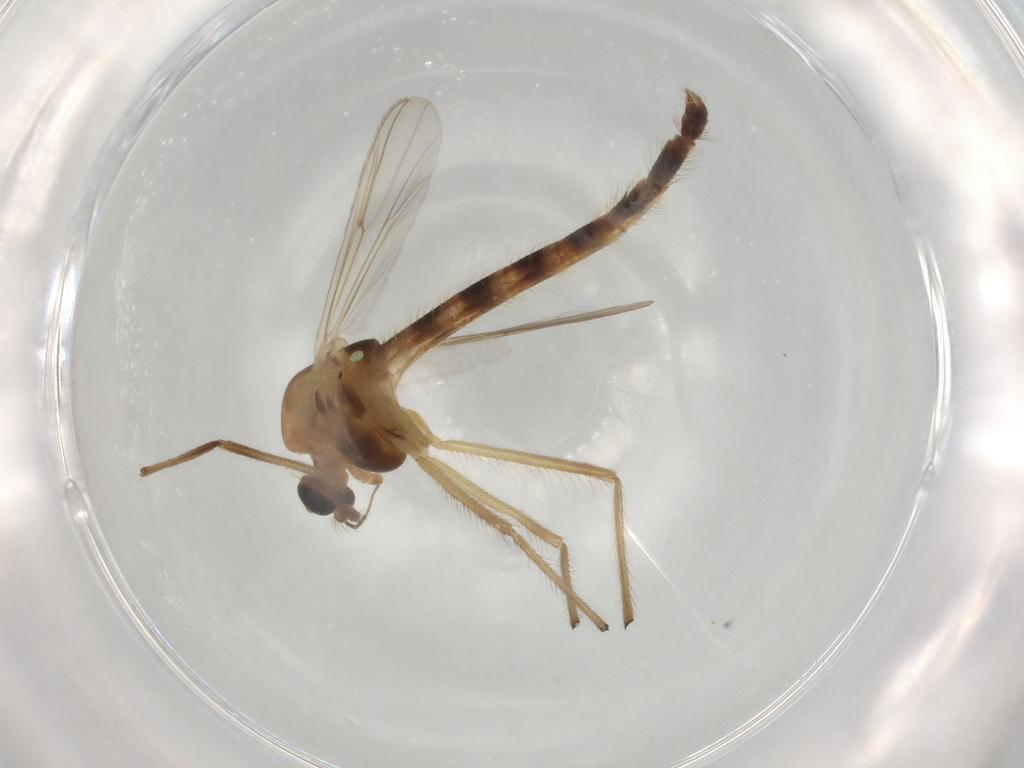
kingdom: Animalia
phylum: Arthropoda
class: Insecta
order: Diptera
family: Chironomidae
